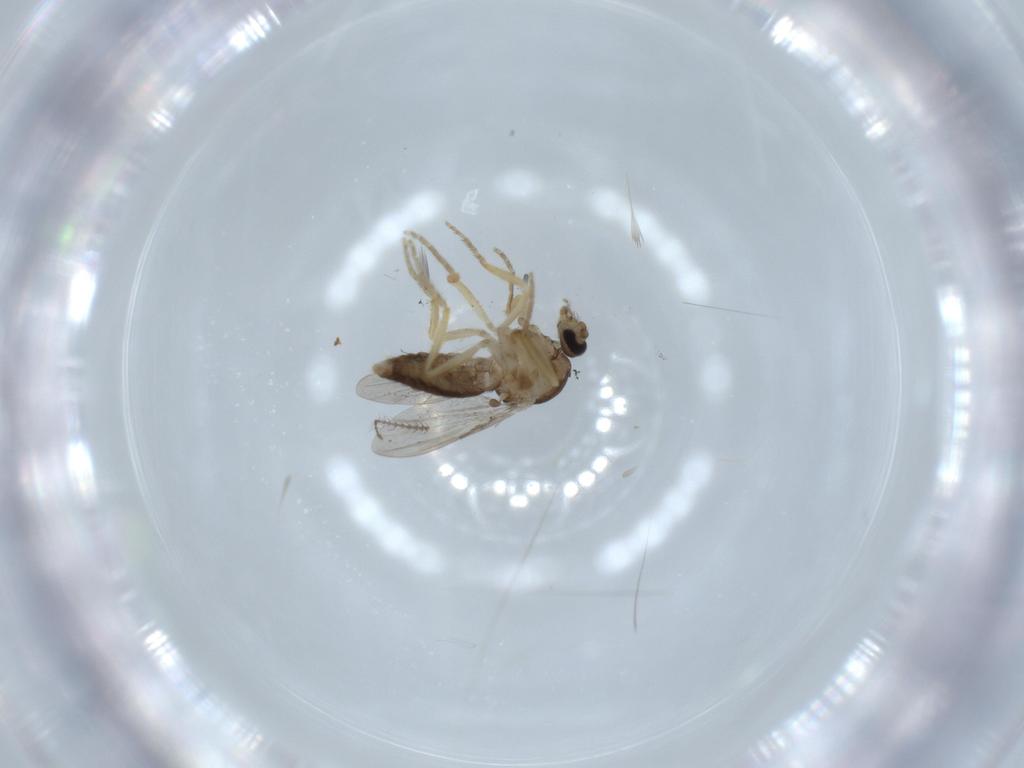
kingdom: Animalia
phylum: Arthropoda
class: Insecta
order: Diptera
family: Ceratopogonidae
